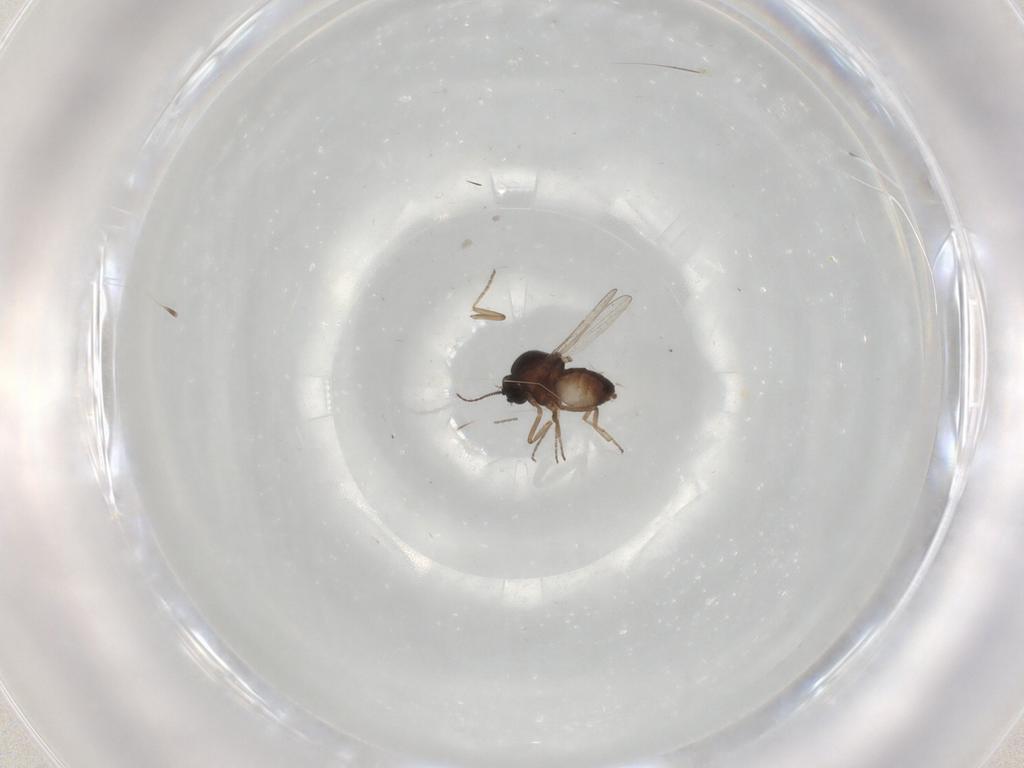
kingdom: Animalia
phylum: Arthropoda
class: Insecta
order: Diptera
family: Ceratopogonidae
